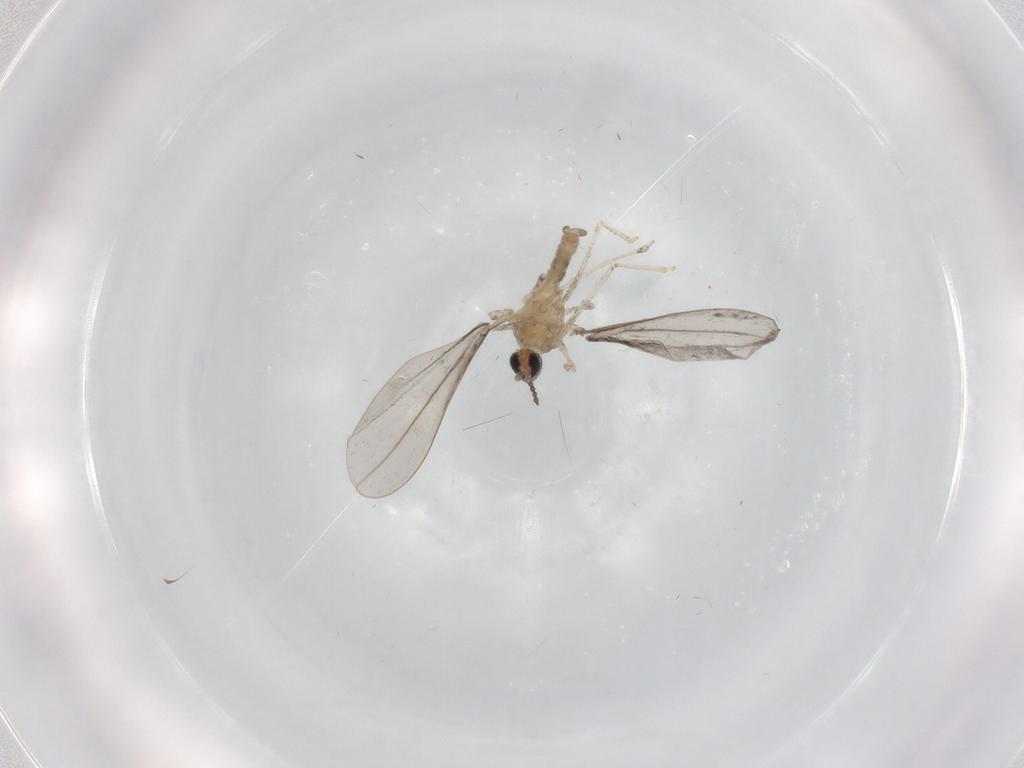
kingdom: Animalia
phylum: Arthropoda
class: Insecta
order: Diptera
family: Cecidomyiidae
